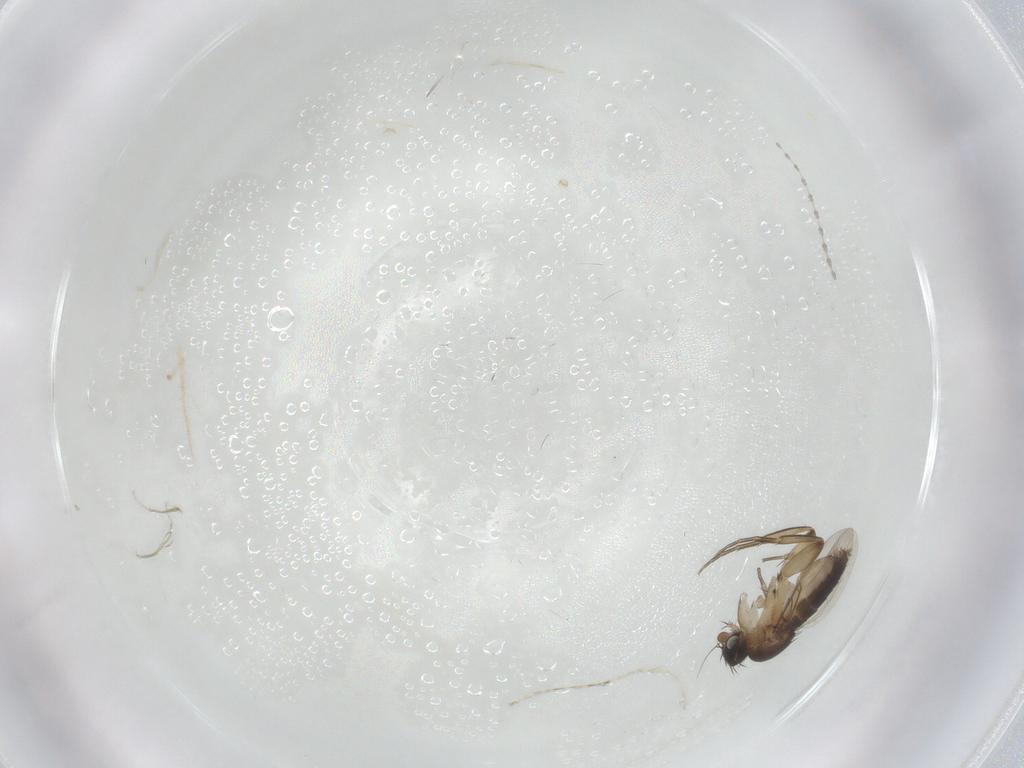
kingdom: Animalia
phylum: Arthropoda
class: Insecta
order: Diptera
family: Phoridae
